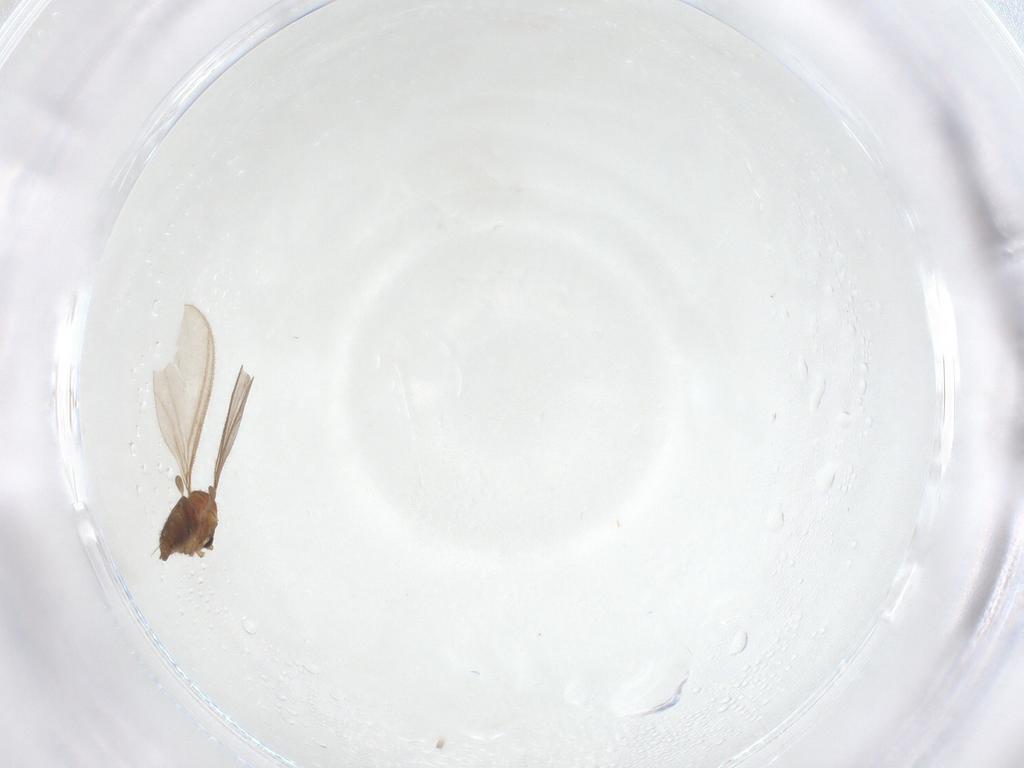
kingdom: Animalia
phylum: Arthropoda
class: Insecta
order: Diptera
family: Sciaridae
